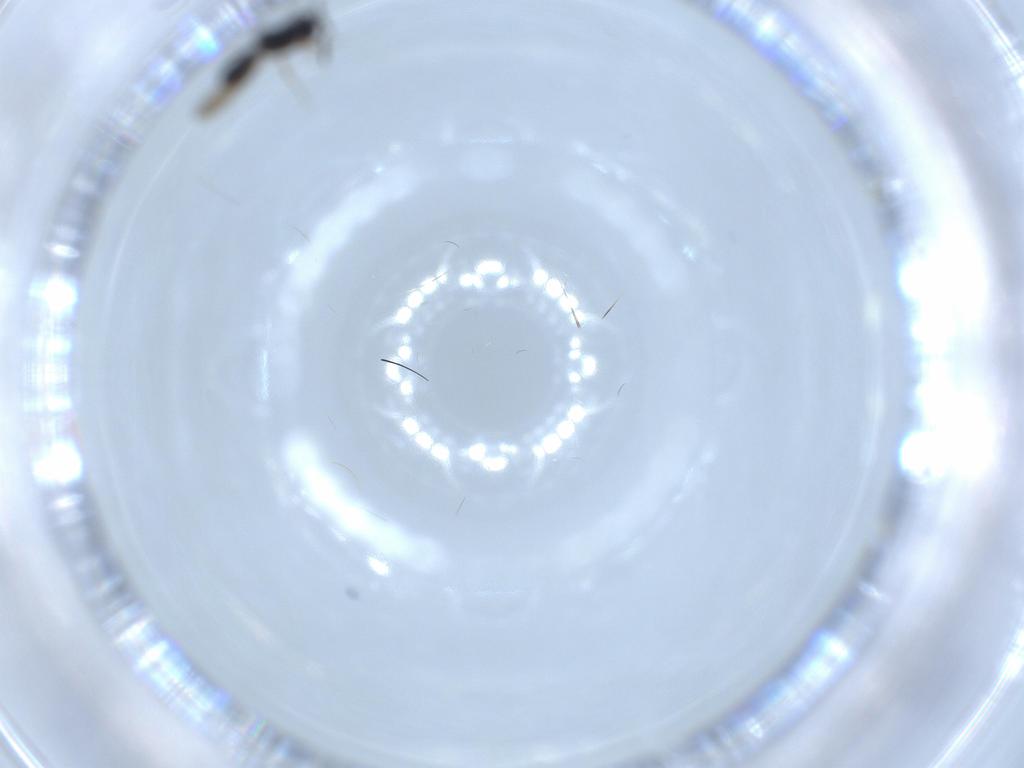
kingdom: Animalia
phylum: Arthropoda
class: Insecta
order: Hymenoptera
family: Scelionidae
